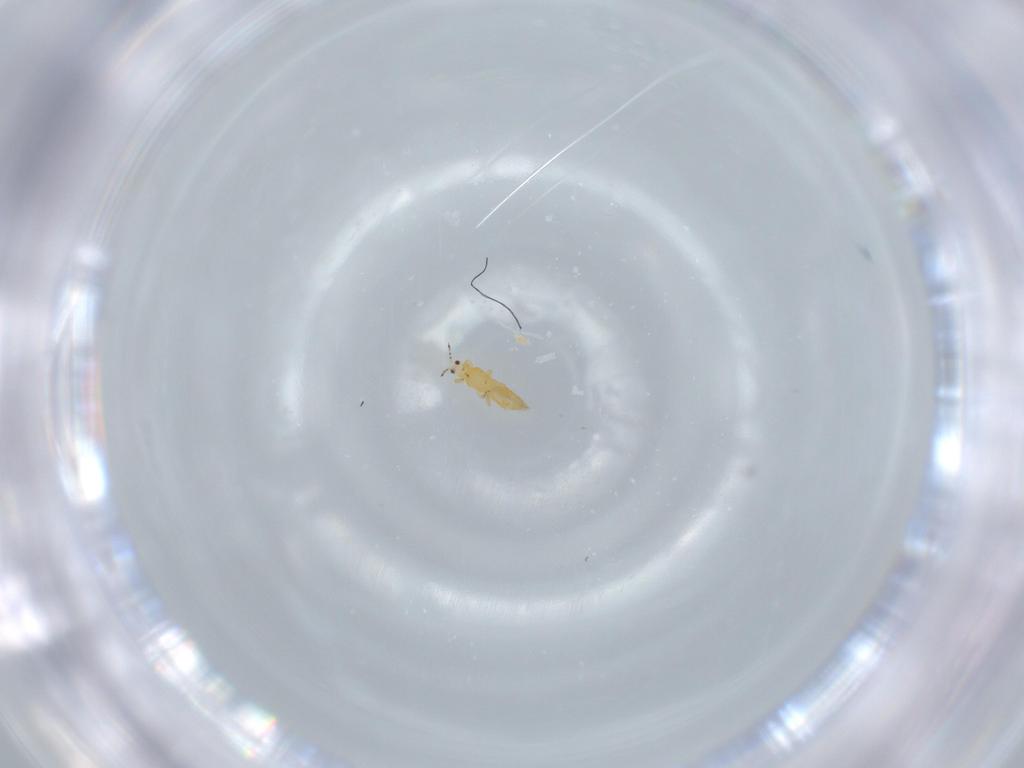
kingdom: Animalia
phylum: Arthropoda
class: Insecta
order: Thysanoptera
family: Thripidae
